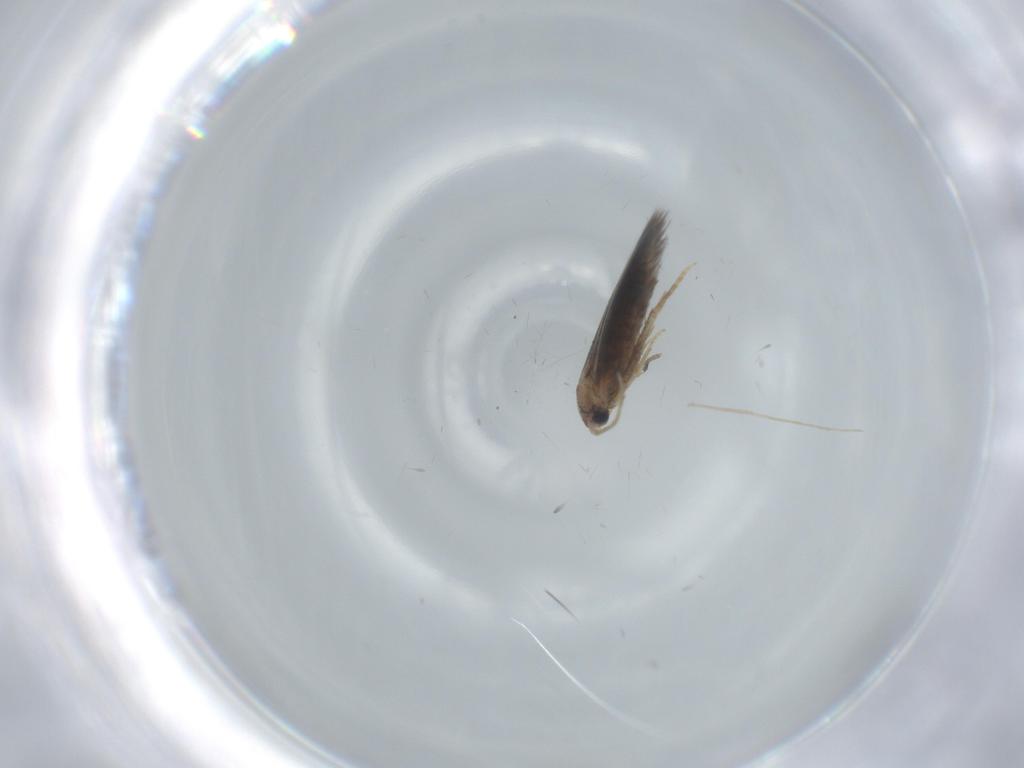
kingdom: Animalia
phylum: Arthropoda
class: Insecta
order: Lepidoptera
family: Bucculatricidae
